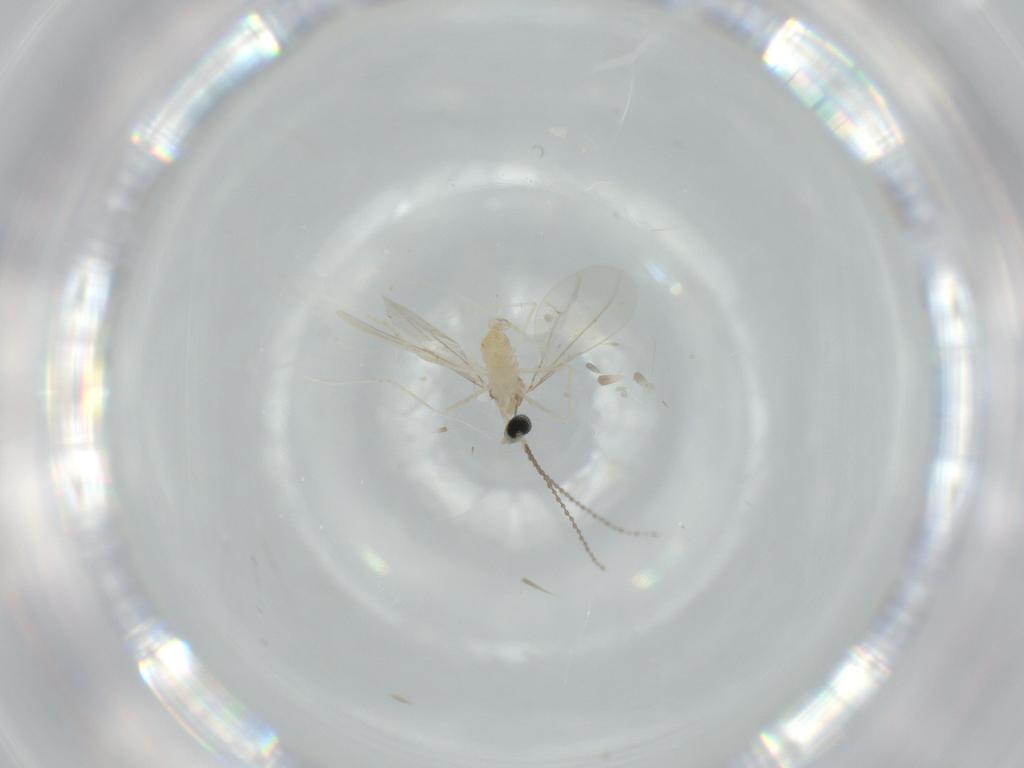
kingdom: Animalia
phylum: Arthropoda
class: Insecta
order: Diptera
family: Cecidomyiidae
